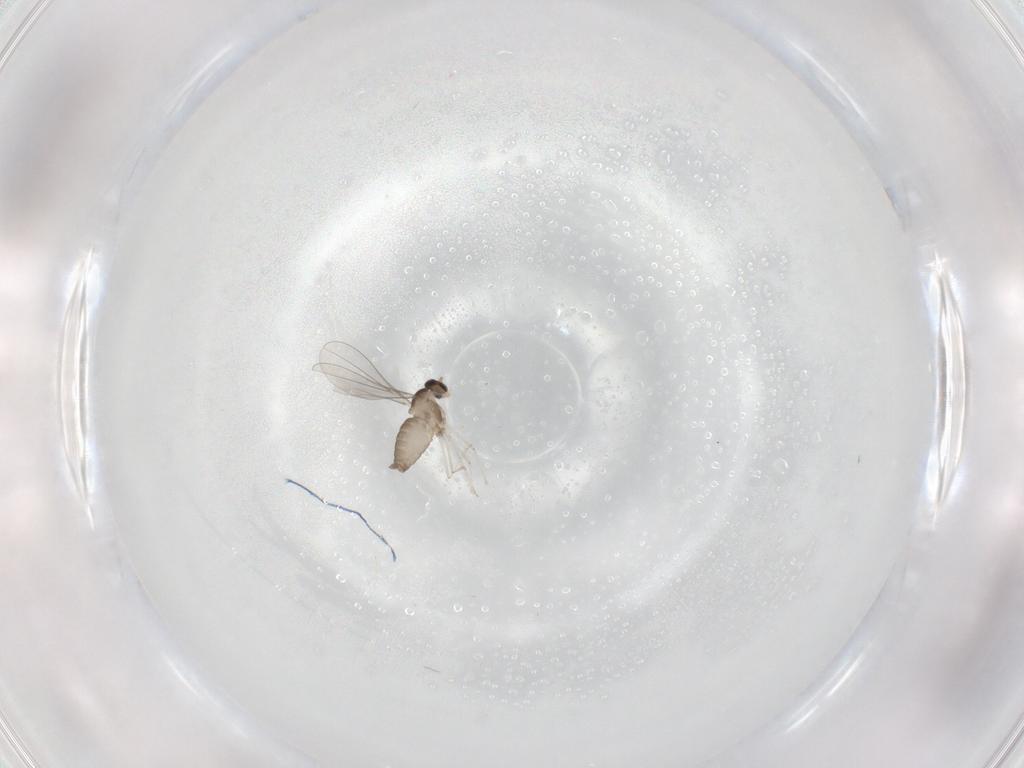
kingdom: Animalia
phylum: Arthropoda
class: Insecta
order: Diptera
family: Cecidomyiidae
